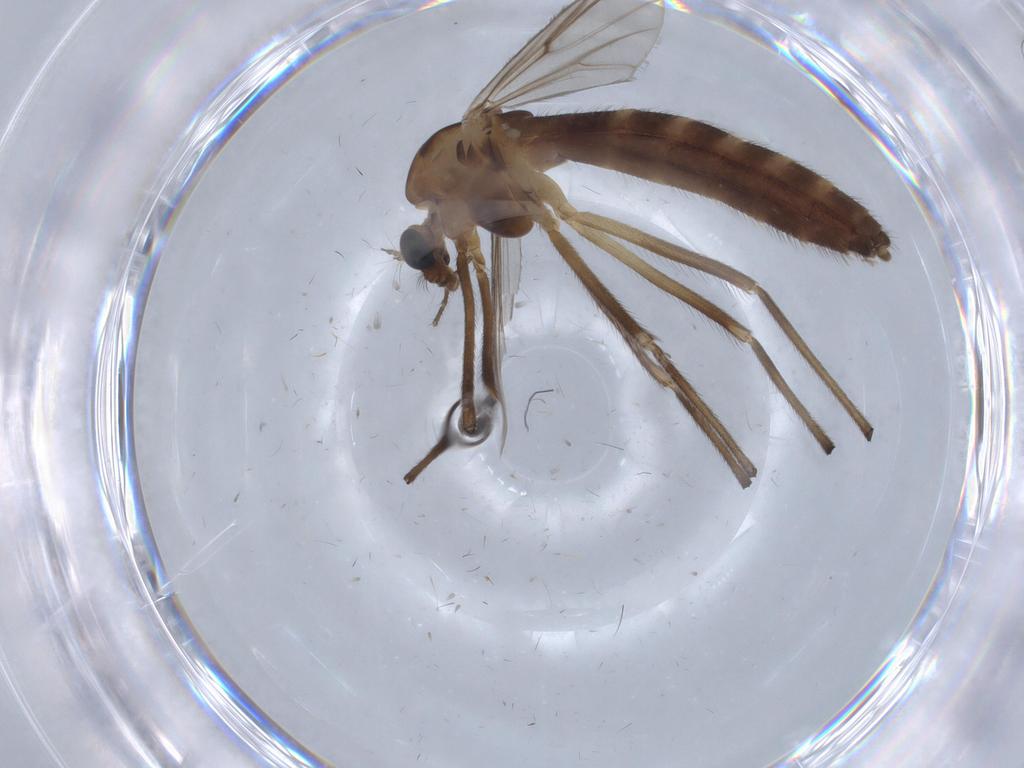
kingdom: Animalia
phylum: Arthropoda
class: Insecta
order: Diptera
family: Chironomidae
